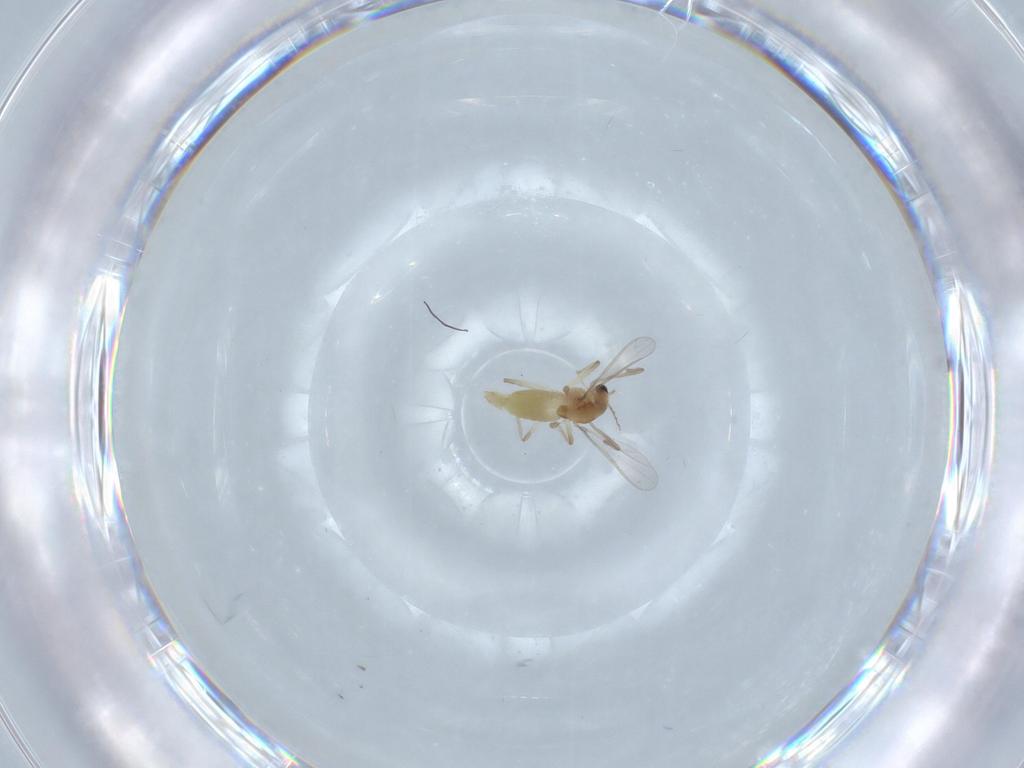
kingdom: Animalia
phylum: Arthropoda
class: Insecta
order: Diptera
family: Chironomidae
